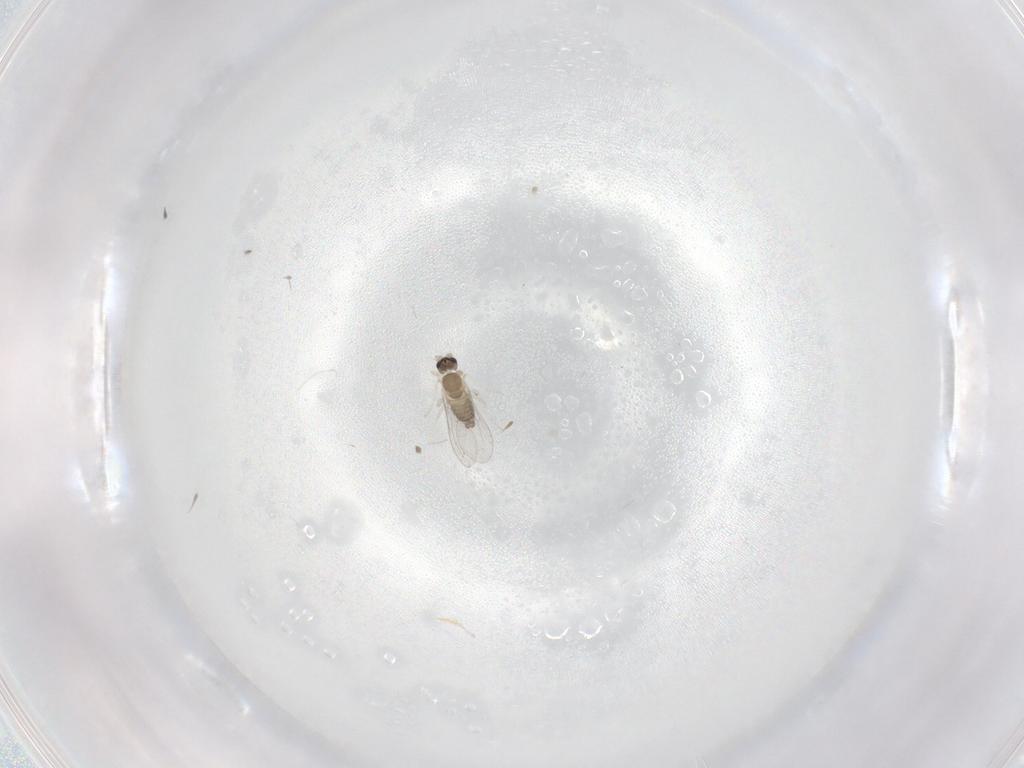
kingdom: Animalia
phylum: Arthropoda
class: Insecta
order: Diptera
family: Cecidomyiidae
